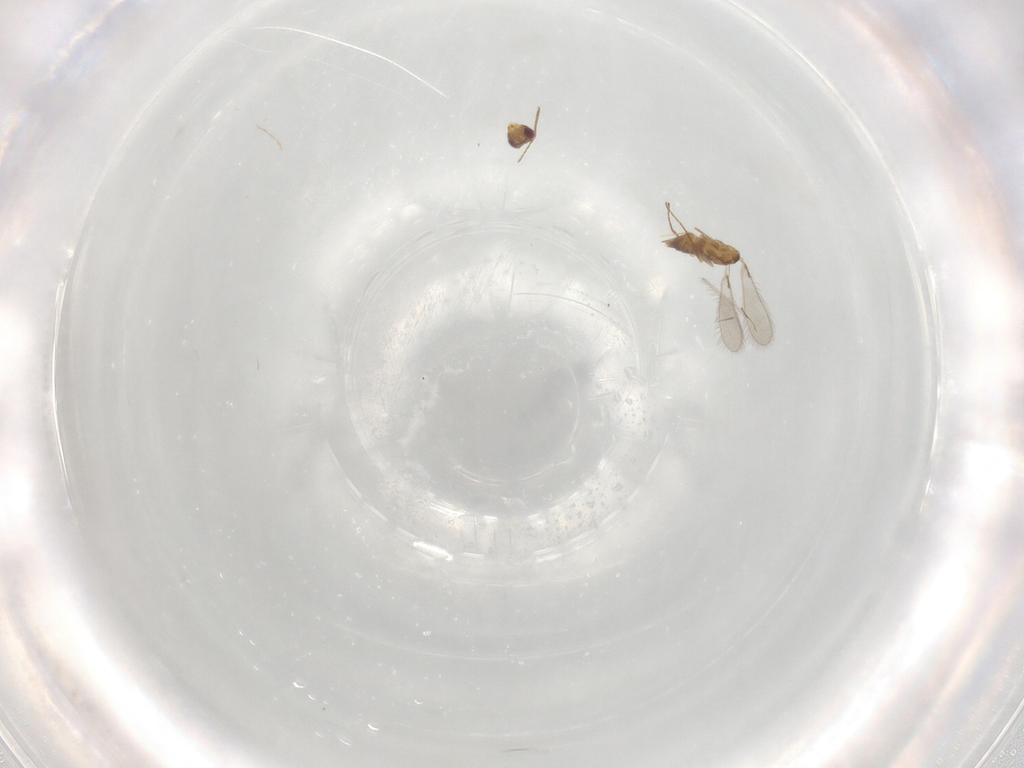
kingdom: Animalia
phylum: Arthropoda
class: Insecta
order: Hymenoptera
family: Mymaridae
